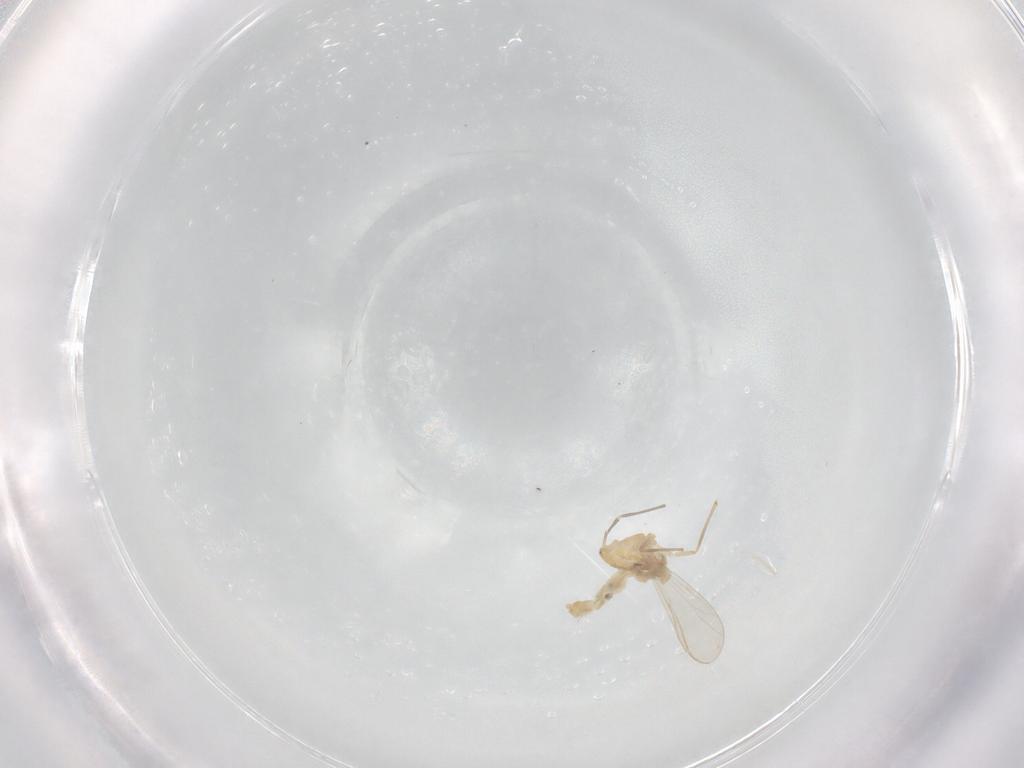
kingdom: Animalia
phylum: Arthropoda
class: Insecta
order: Diptera
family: Chironomidae
